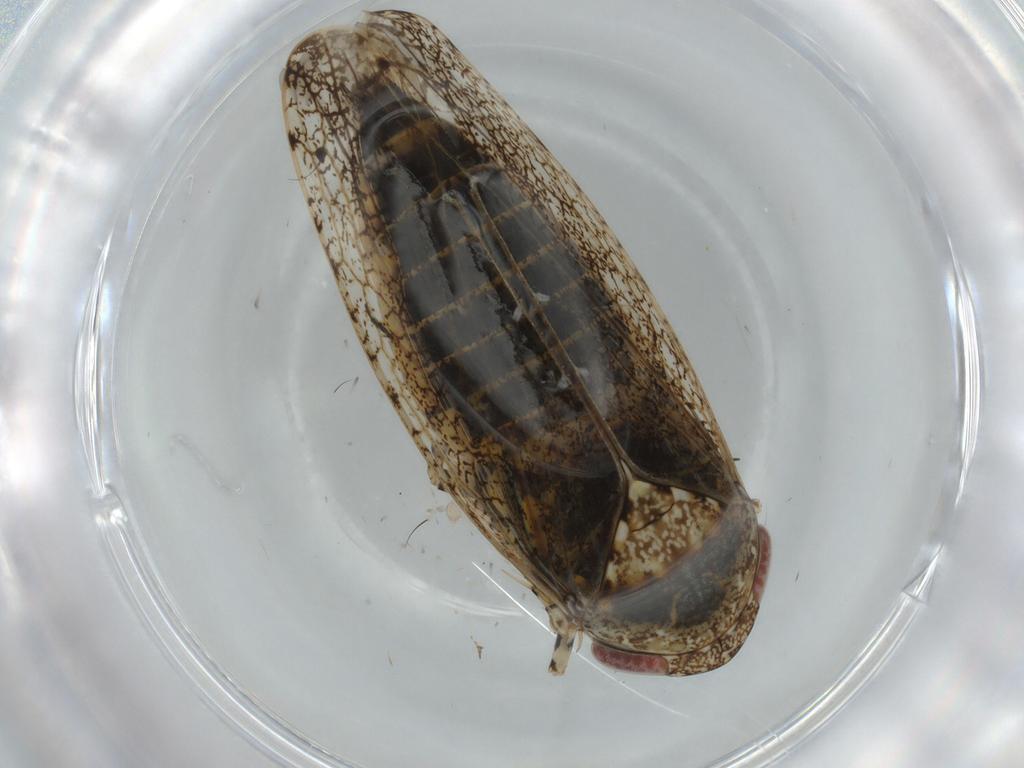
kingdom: Animalia
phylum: Arthropoda
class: Insecta
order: Hemiptera
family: Cicadellidae
